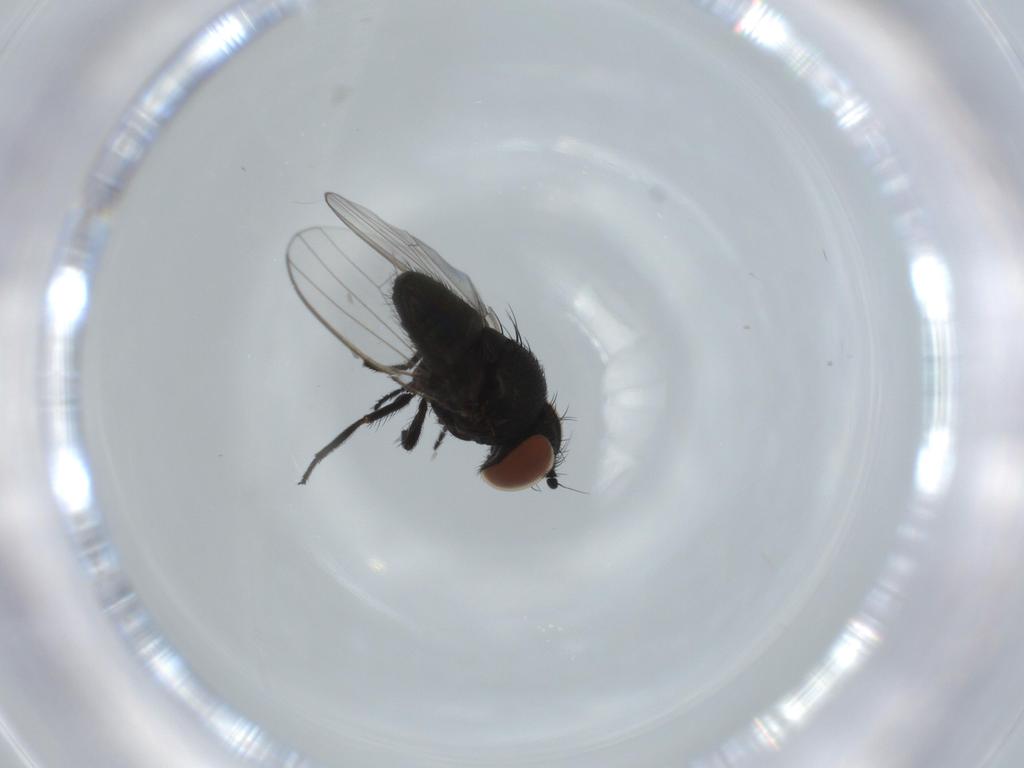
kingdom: Animalia
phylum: Arthropoda
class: Insecta
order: Diptera
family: Milichiidae
